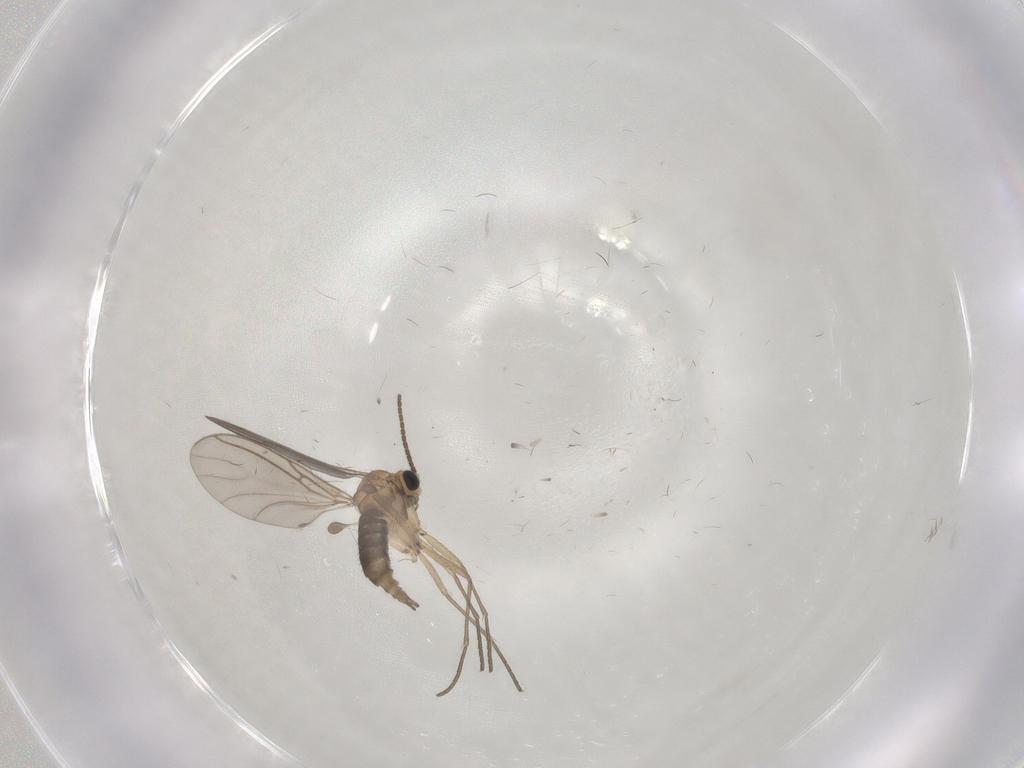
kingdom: Animalia
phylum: Arthropoda
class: Insecta
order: Diptera
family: Sciaridae
